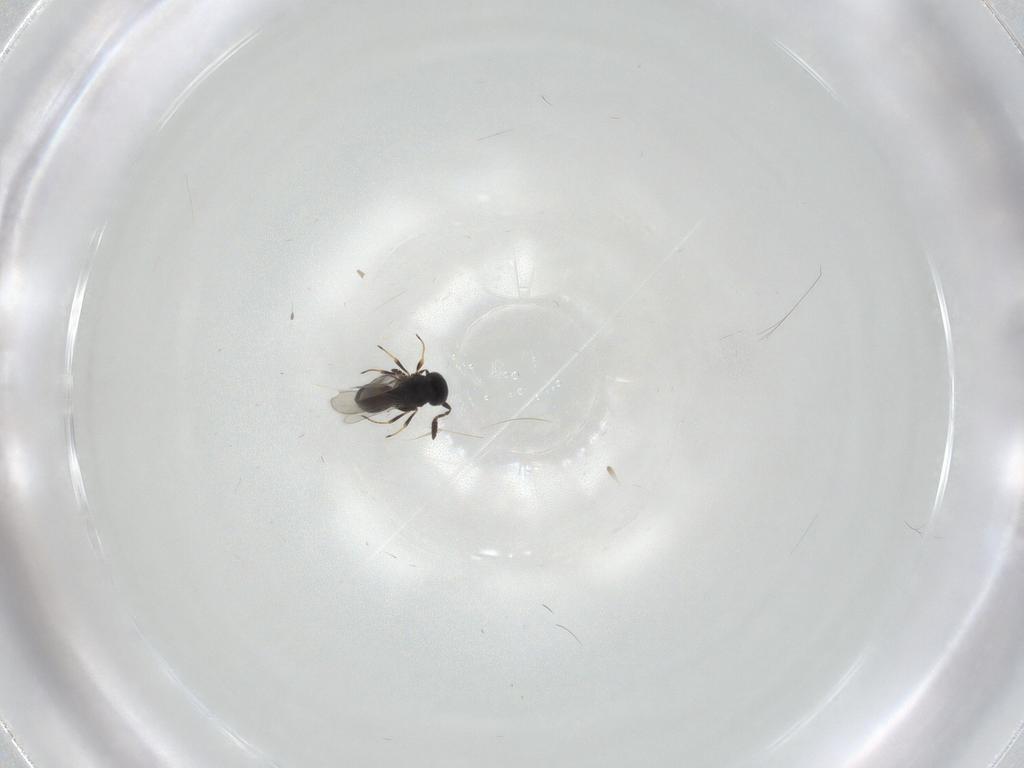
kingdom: Animalia
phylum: Arthropoda
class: Insecta
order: Hymenoptera
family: Scelionidae
